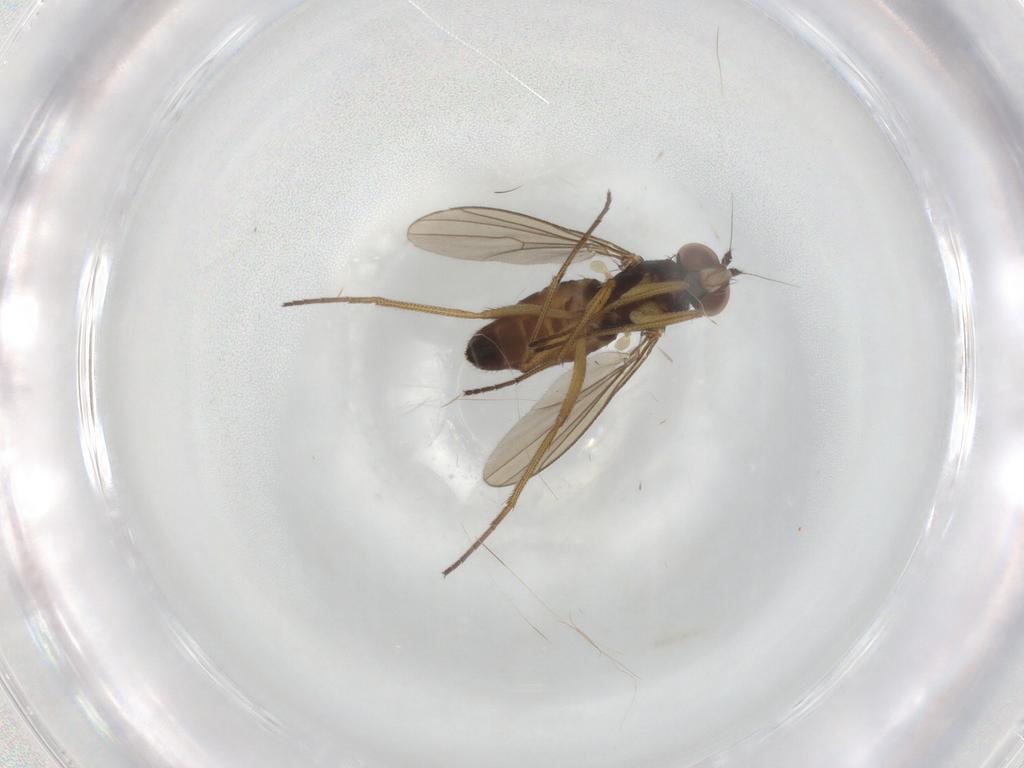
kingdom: Animalia
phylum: Arthropoda
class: Insecta
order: Diptera
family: Dolichopodidae
